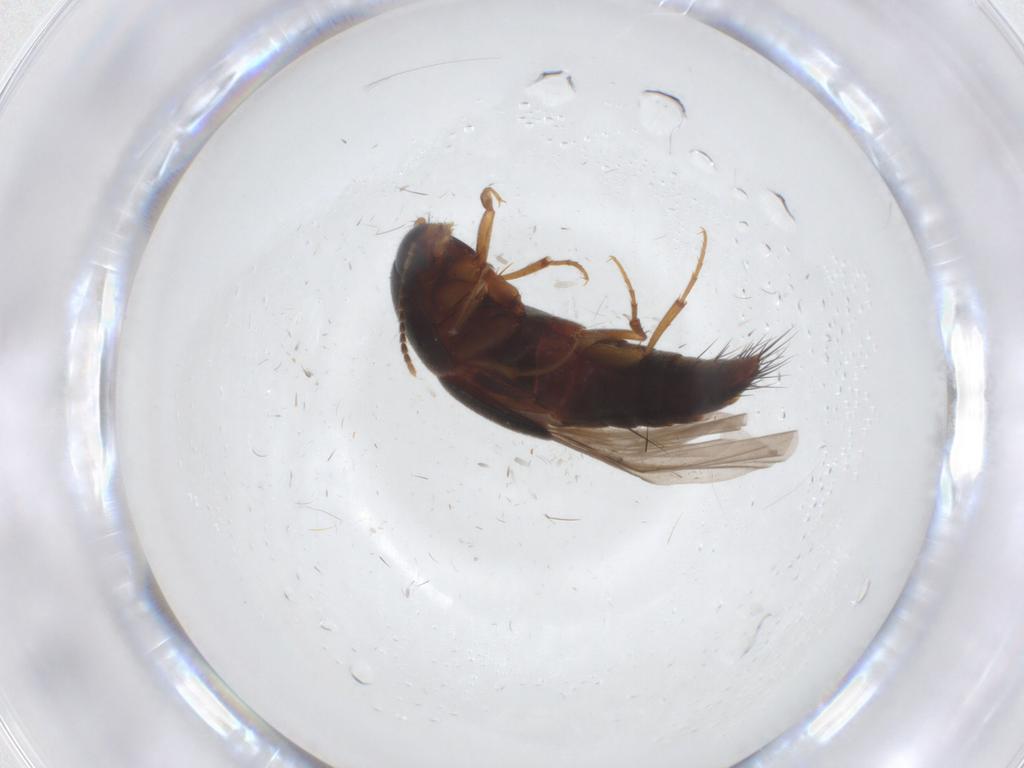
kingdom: Animalia
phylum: Arthropoda
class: Insecta
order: Coleoptera
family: Staphylinidae
